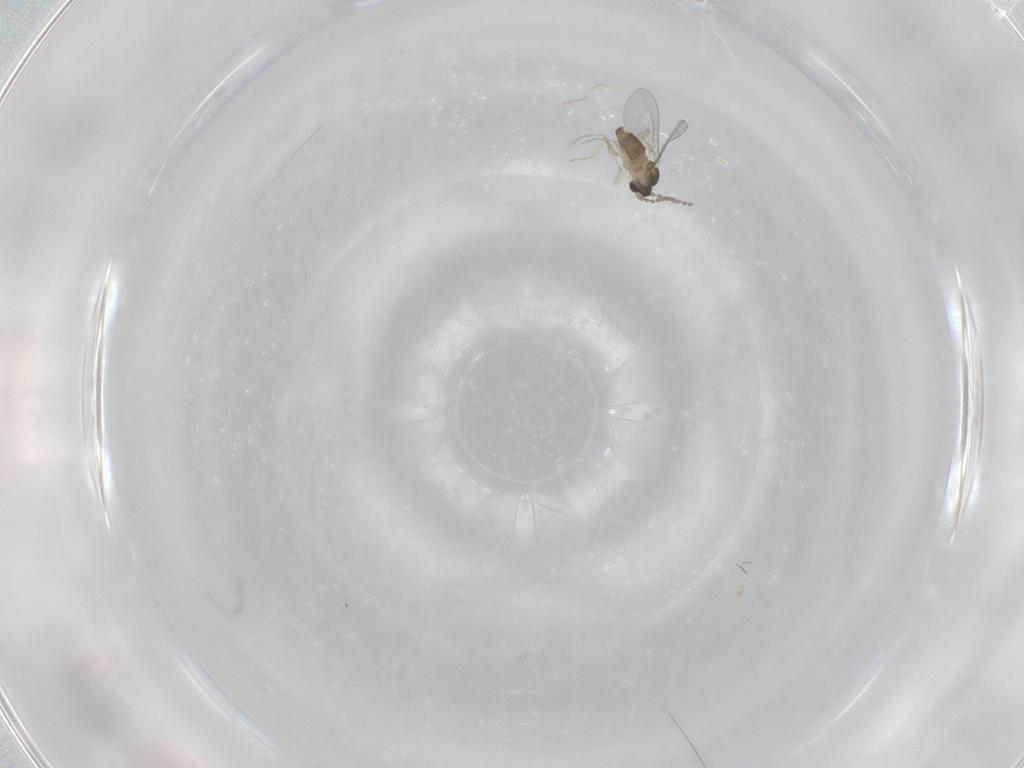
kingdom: Animalia
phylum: Arthropoda
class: Insecta
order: Diptera
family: Cecidomyiidae
